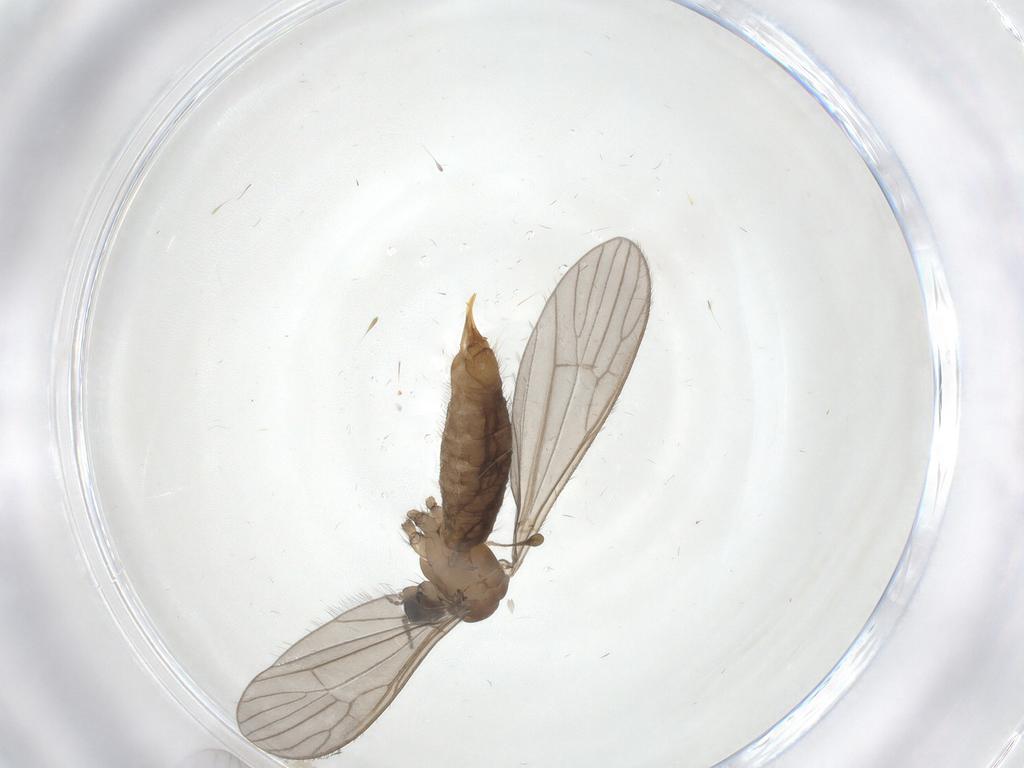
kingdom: Animalia
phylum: Arthropoda
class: Insecta
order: Diptera
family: Limoniidae
